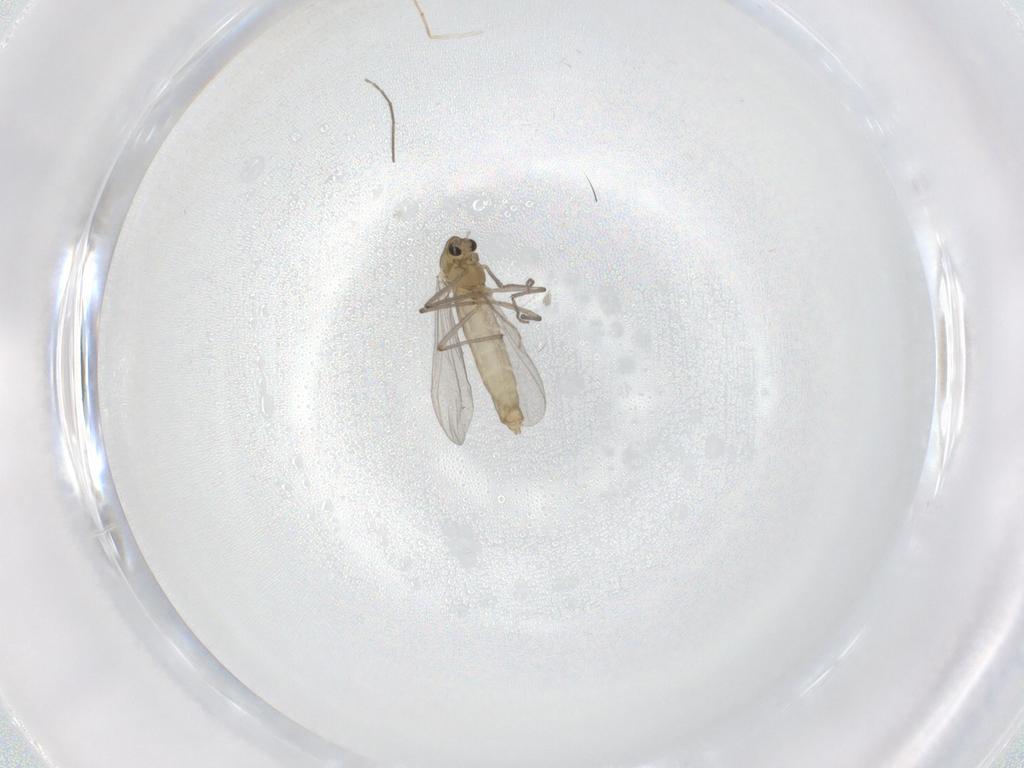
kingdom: Animalia
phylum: Arthropoda
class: Insecta
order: Diptera
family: Chironomidae
